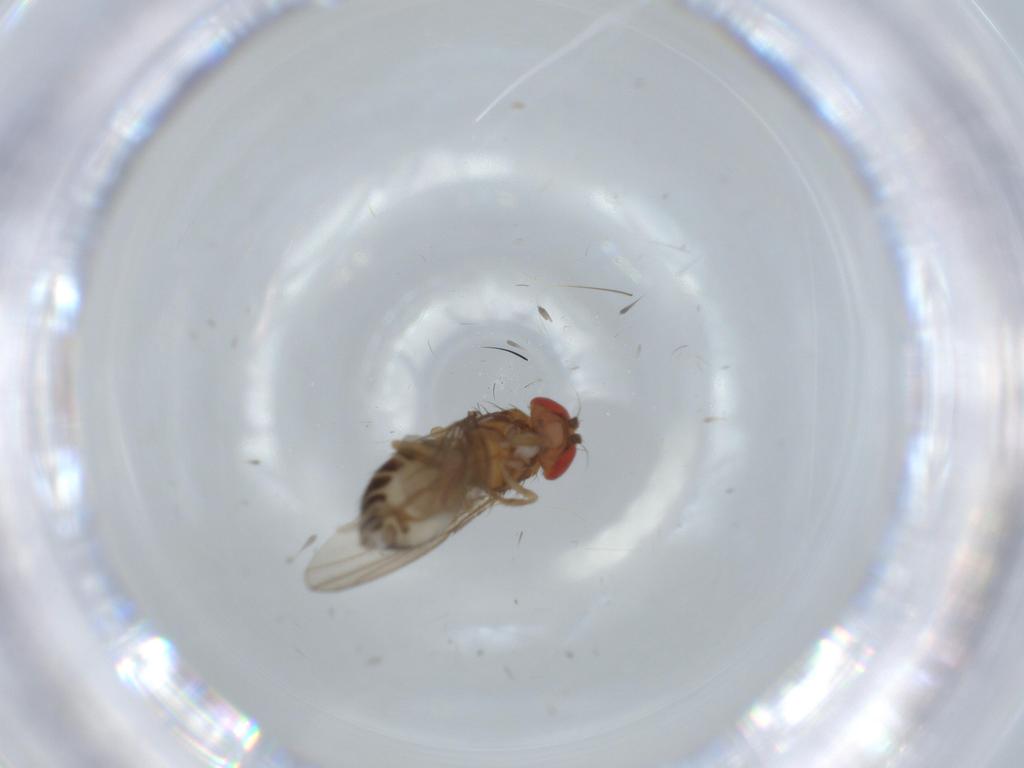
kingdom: Animalia
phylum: Arthropoda
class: Insecta
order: Diptera
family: Drosophilidae
